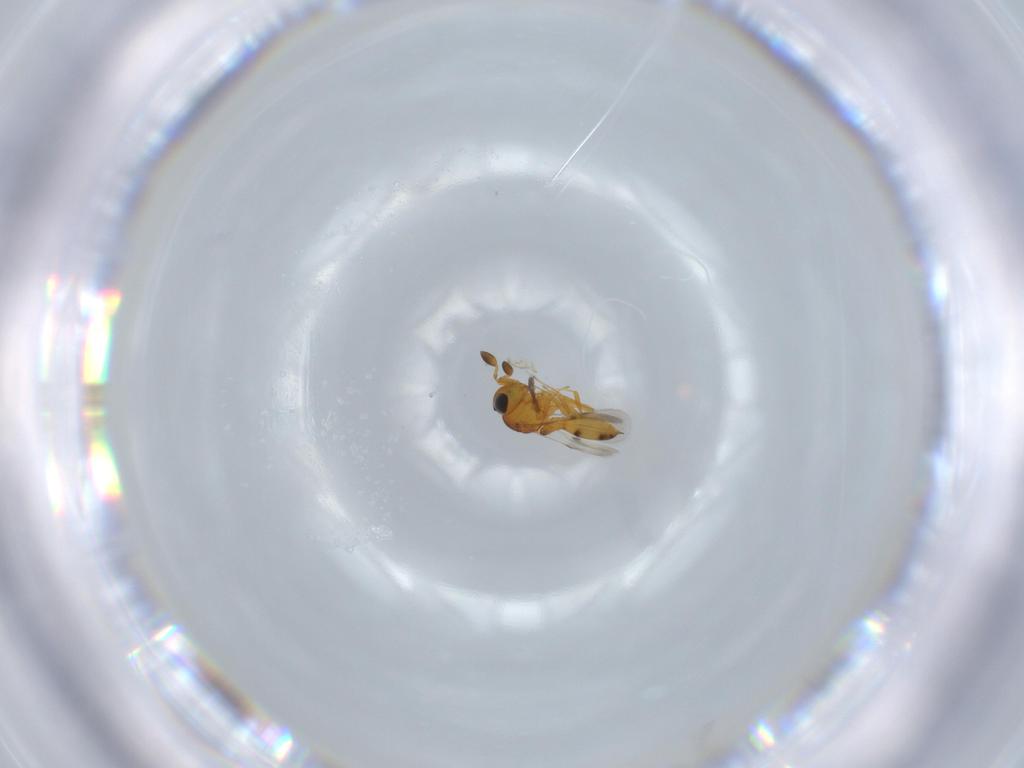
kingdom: Animalia
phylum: Arthropoda
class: Insecta
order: Hymenoptera
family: Scelionidae
